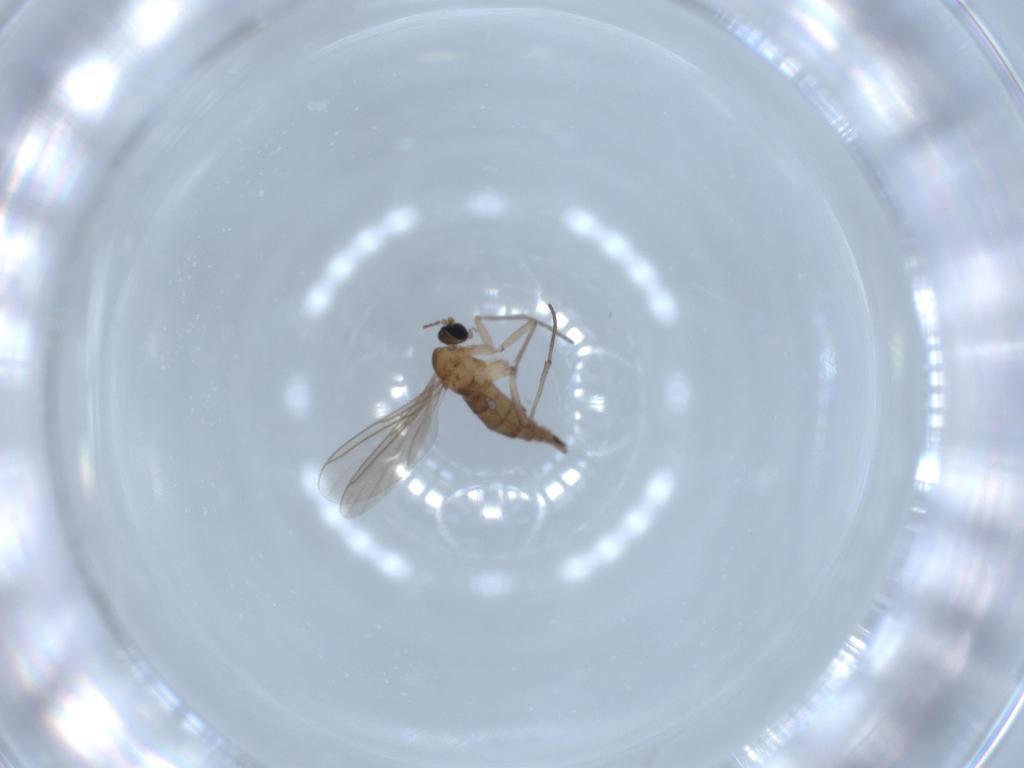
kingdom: Animalia
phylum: Arthropoda
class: Insecta
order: Diptera
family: Sciaridae
